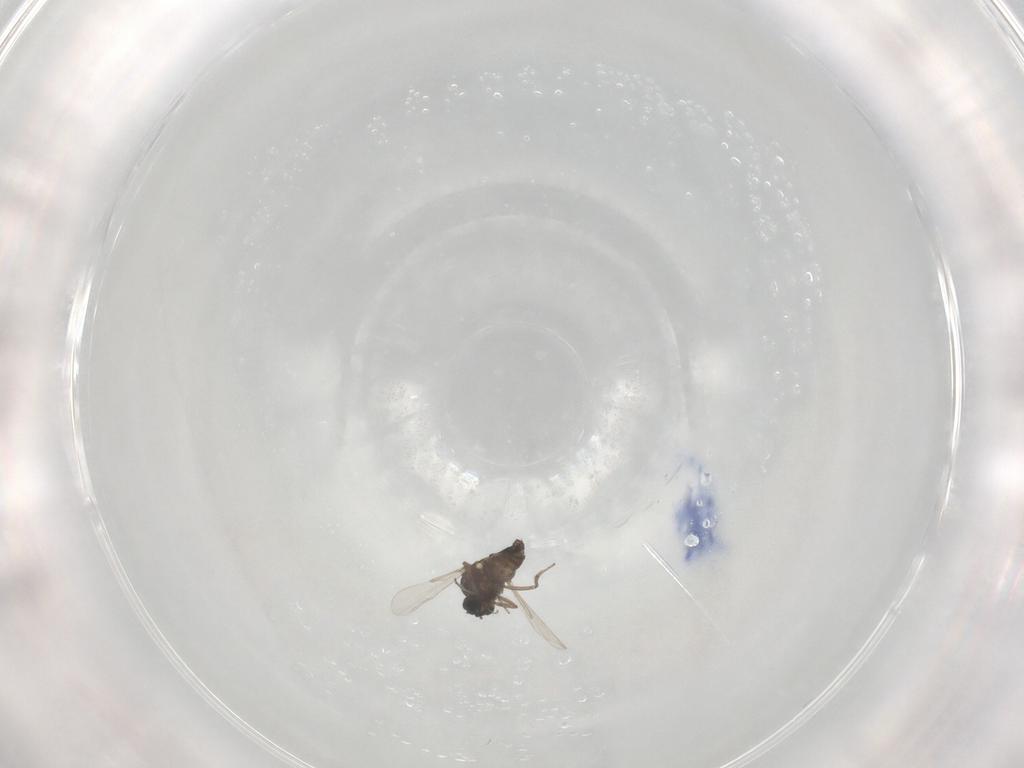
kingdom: Animalia
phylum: Arthropoda
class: Insecta
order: Diptera
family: Ceratopogonidae
